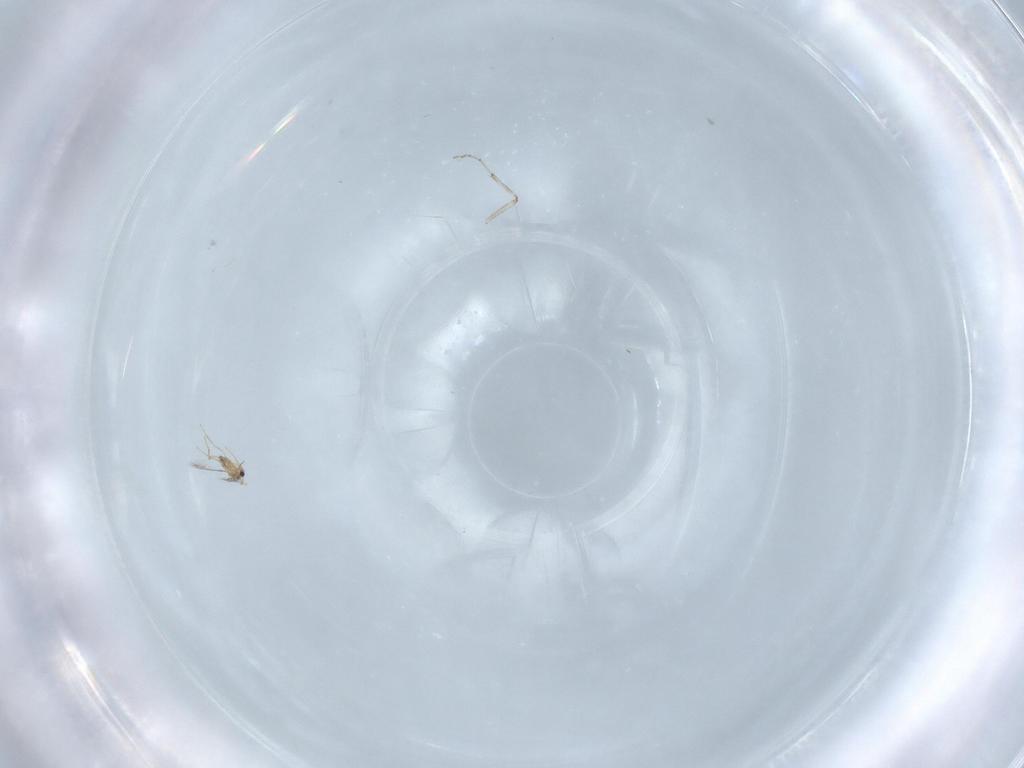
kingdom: Animalia
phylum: Arthropoda
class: Insecta
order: Hymenoptera
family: Mymaridae
